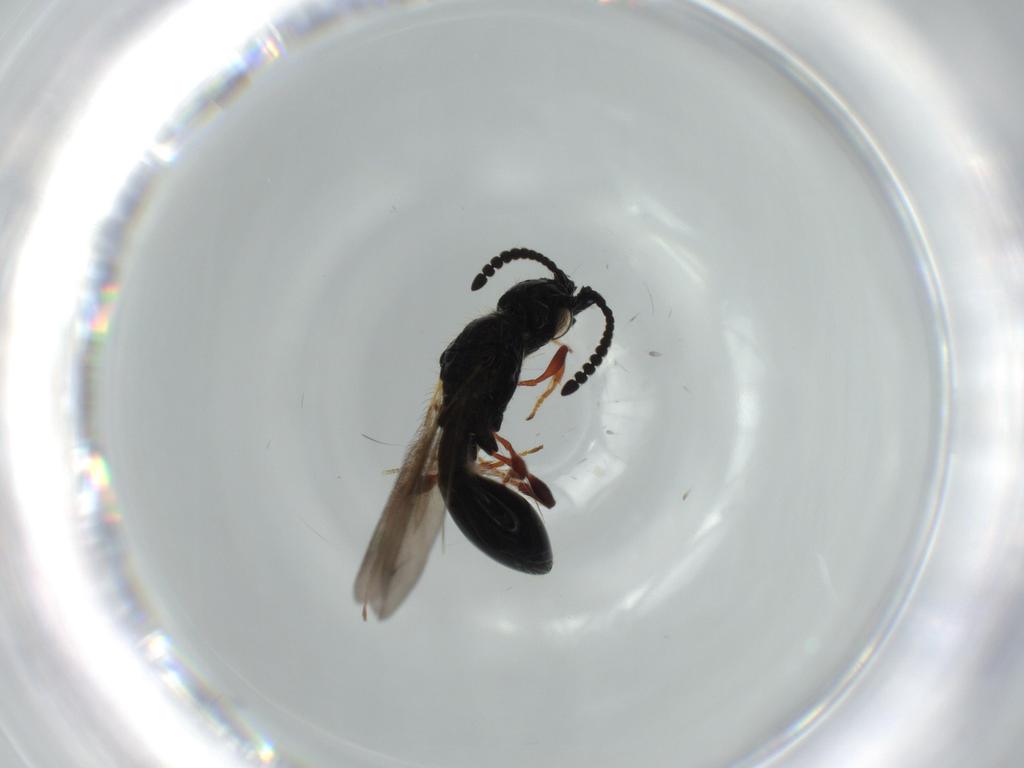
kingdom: Animalia
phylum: Arthropoda
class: Insecta
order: Hymenoptera
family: Diapriidae
